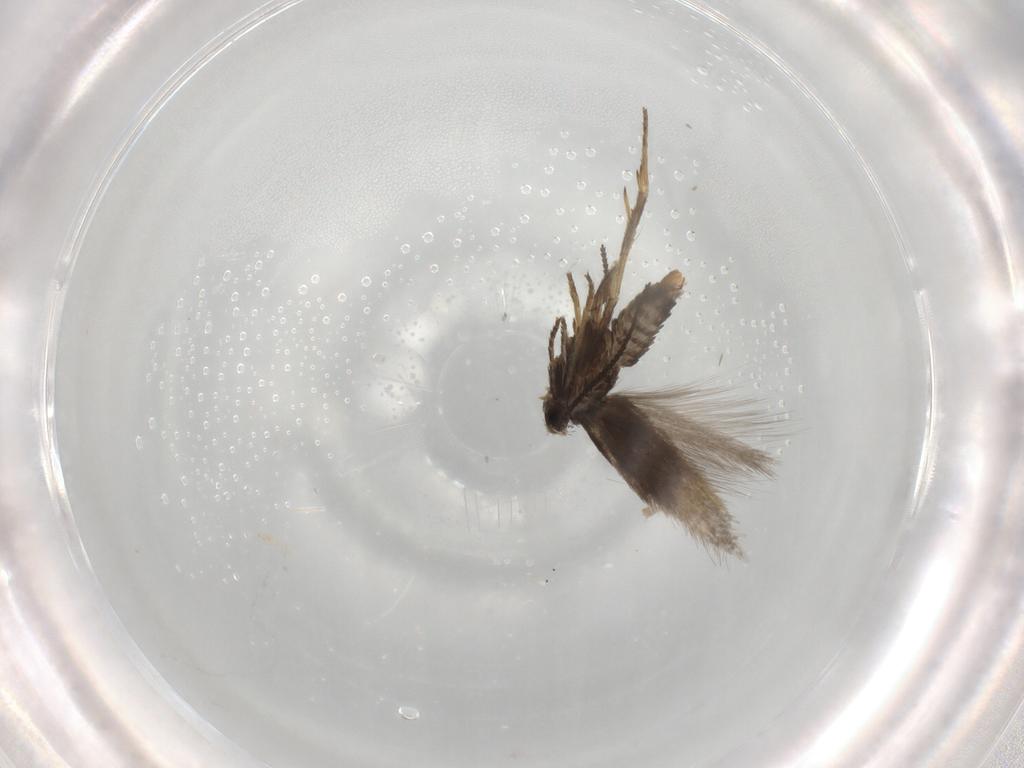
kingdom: Animalia
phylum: Arthropoda
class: Insecta
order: Lepidoptera
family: Nepticulidae
